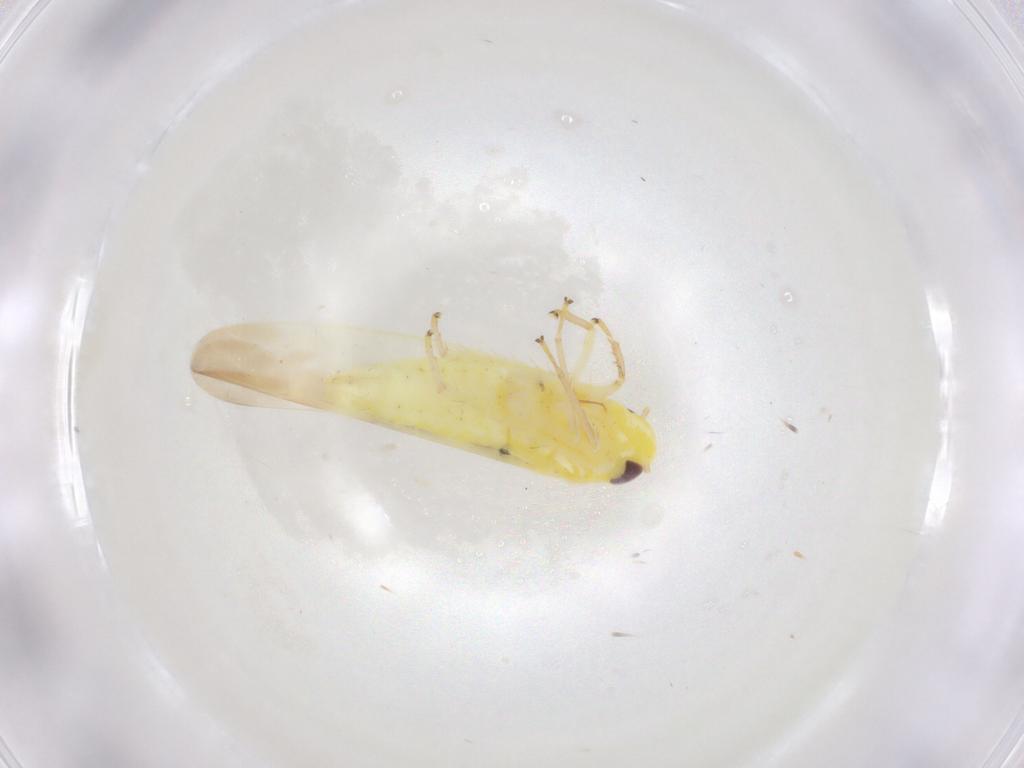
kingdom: Animalia
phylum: Arthropoda
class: Insecta
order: Hemiptera
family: Cicadellidae
